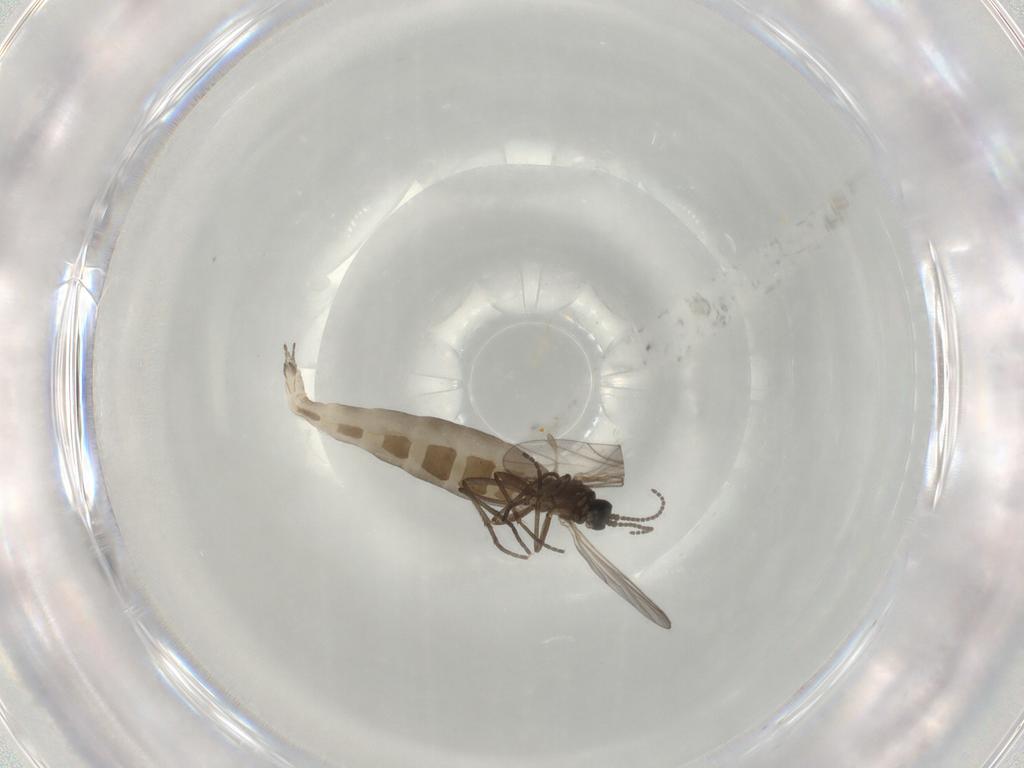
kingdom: Animalia
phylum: Arthropoda
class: Insecta
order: Diptera
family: Sciaridae
